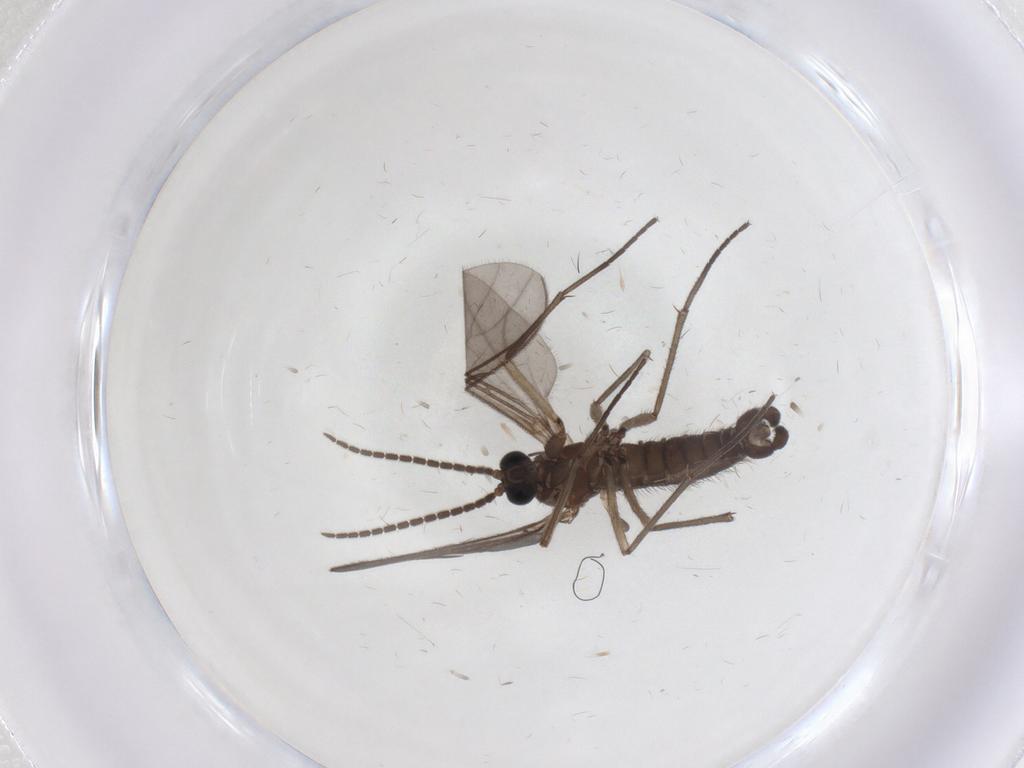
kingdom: Animalia
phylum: Arthropoda
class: Insecta
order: Diptera
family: Sciaridae
